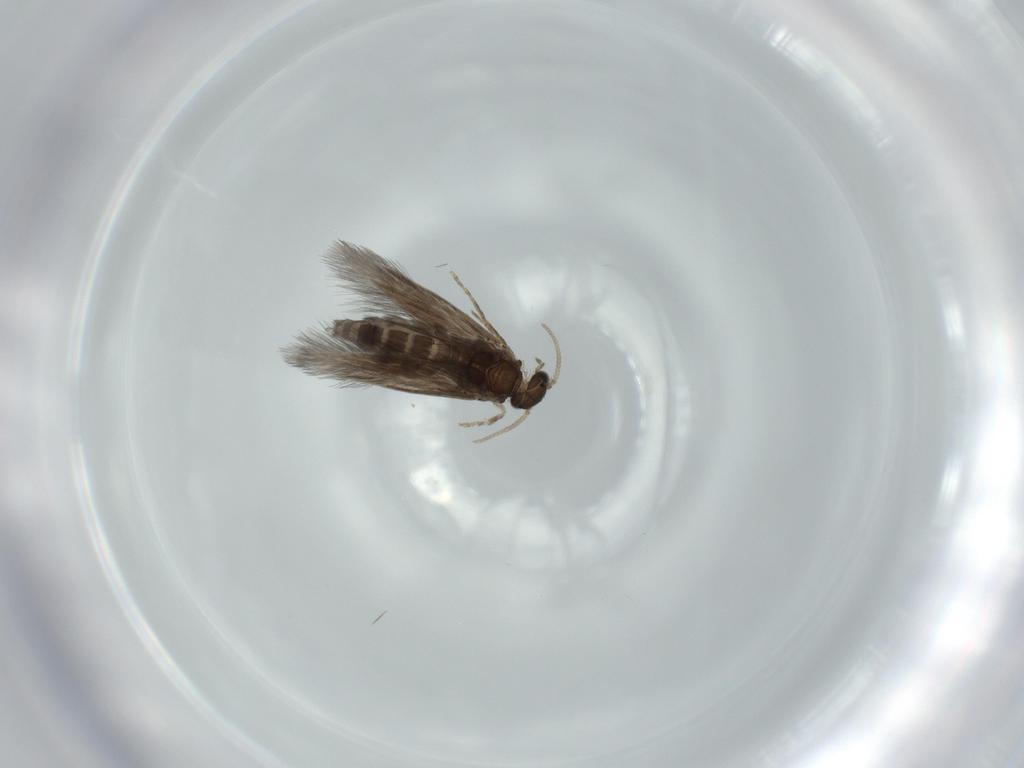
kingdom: Animalia
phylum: Arthropoda
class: Insecta
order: Trichoptera
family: Hydroptilidae
